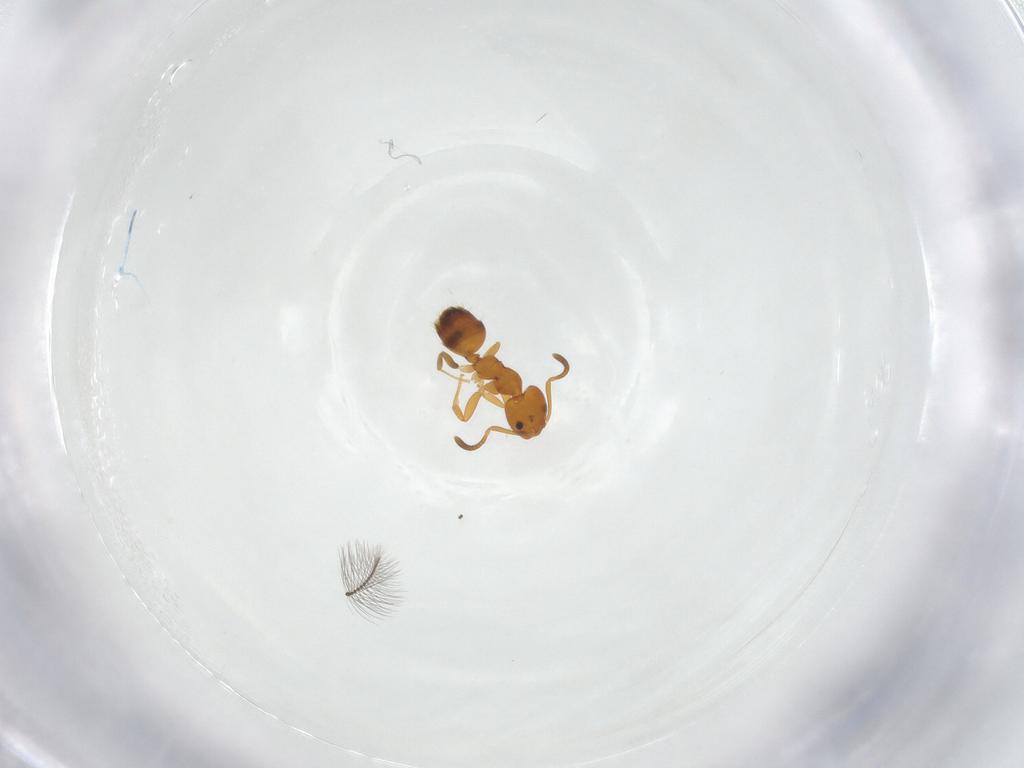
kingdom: Animalia
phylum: Arthropoda
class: Insecta
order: Hymenoptera
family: Formicidae
